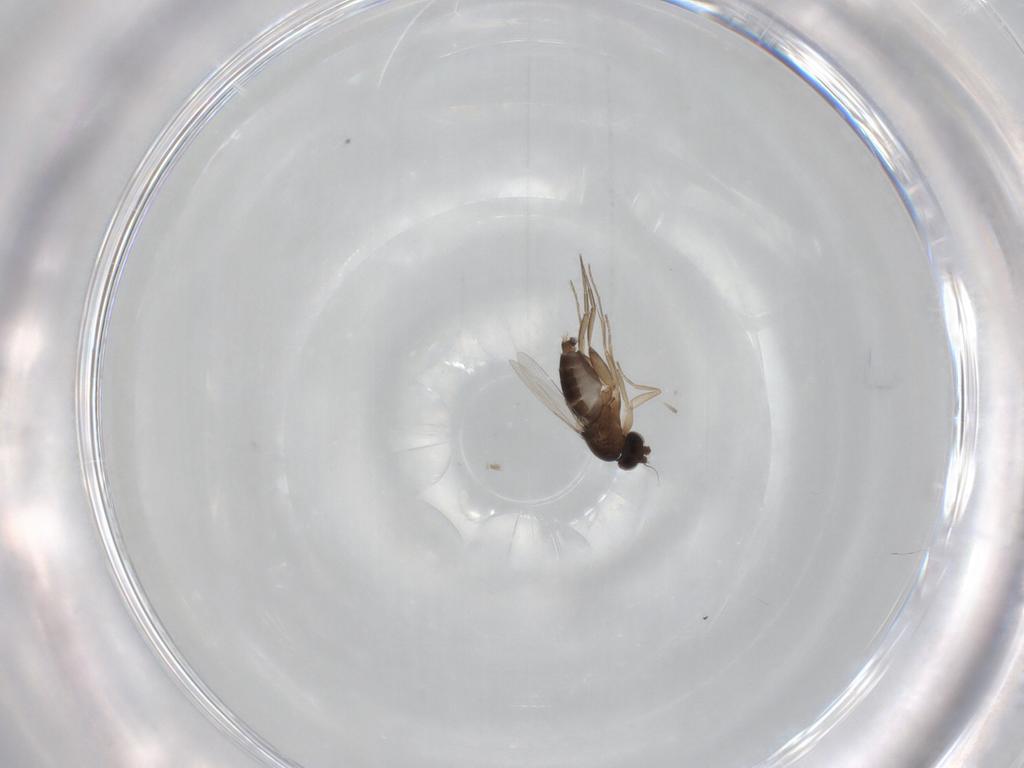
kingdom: Animalia
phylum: Arthropoda
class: Insecta
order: Diptera
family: Phoridae
